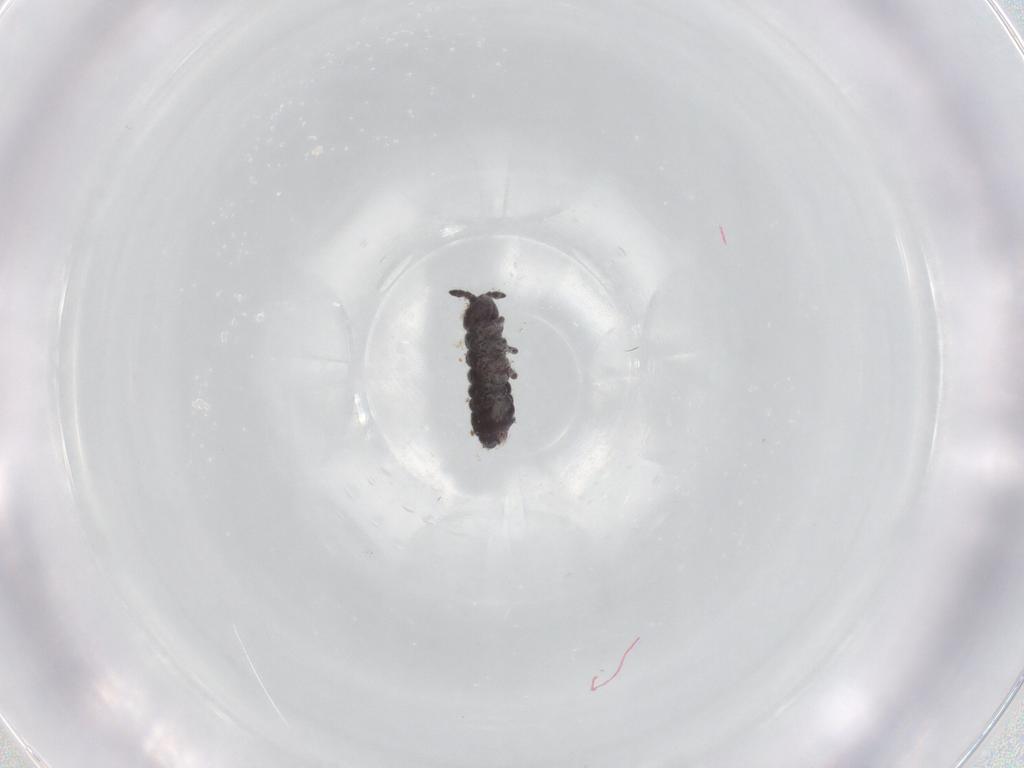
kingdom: Animalia
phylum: Arthropoda
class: Collembola
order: Poduromorpha
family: Hypogastruridae
